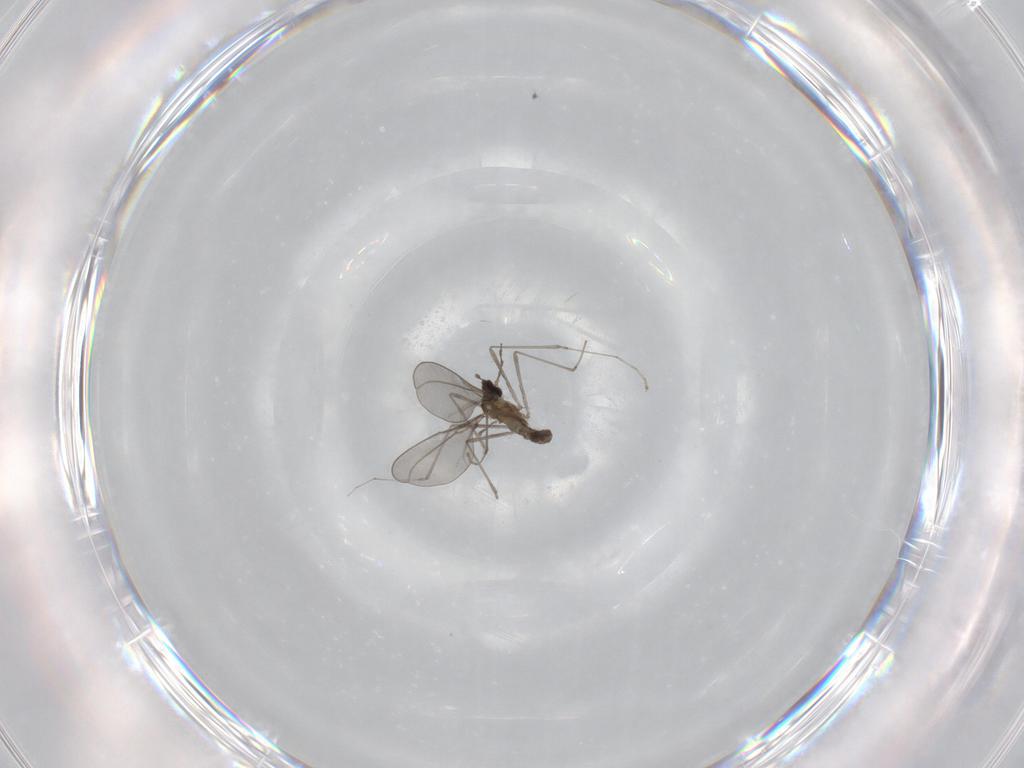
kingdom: Animalia
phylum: Arthropoda
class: Insecta
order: Diptera
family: Cecidomyiidae
